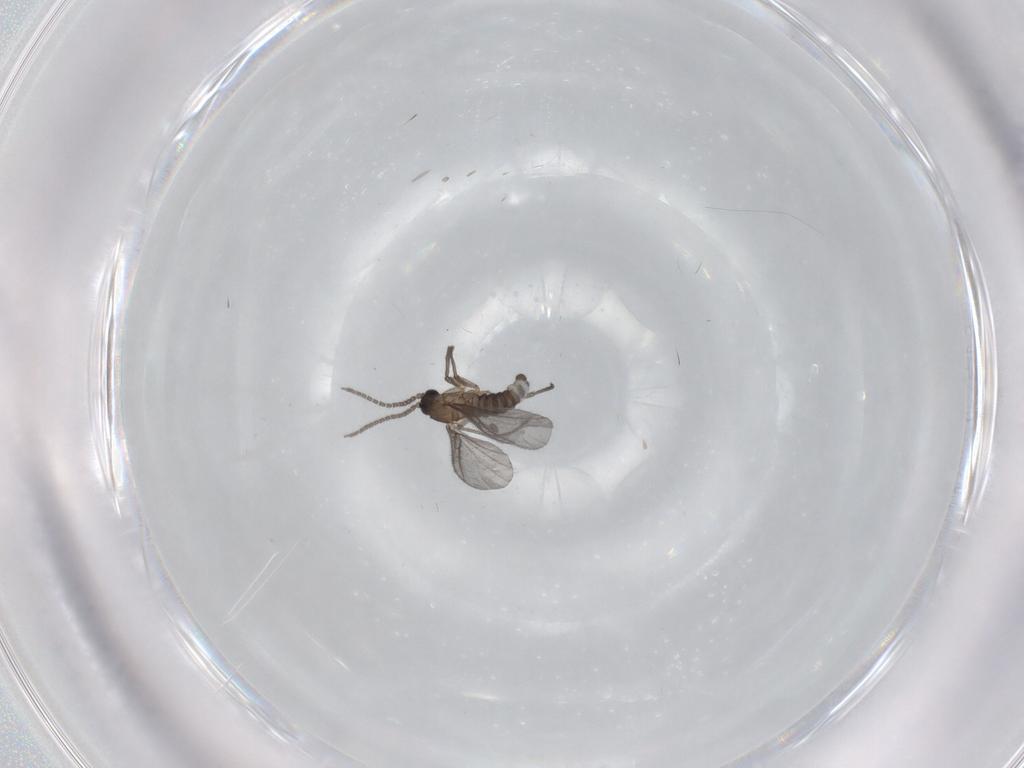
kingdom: Animalia
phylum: Arthropoda
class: Insecta
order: Diptera
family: Sciaridae
